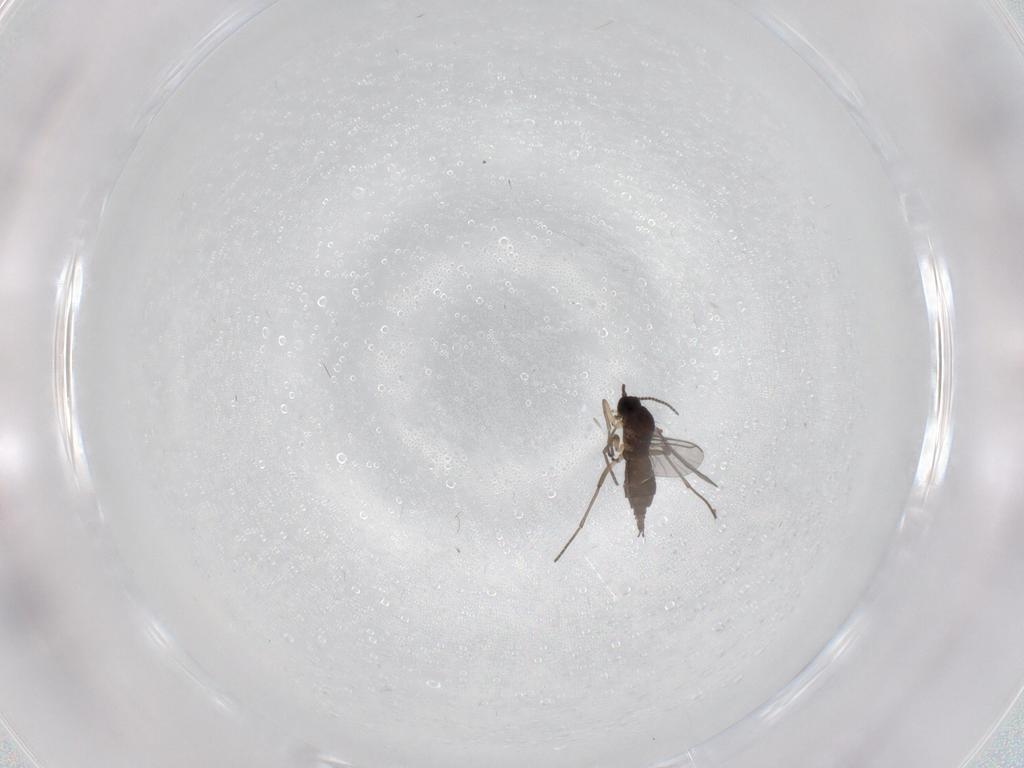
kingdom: Animalia
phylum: Arthropoda
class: Insecta
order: Diptera
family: Sciaridae
